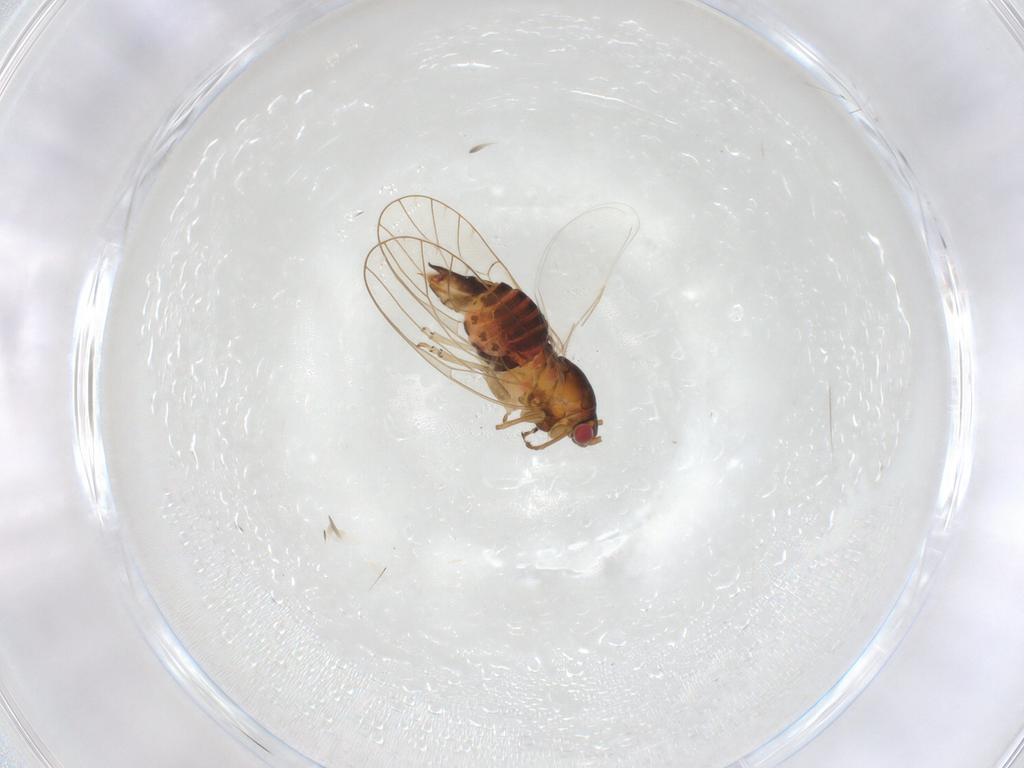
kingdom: Animalia
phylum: Arthropoda
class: Insecta
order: Hemiptera
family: Psyllidae
